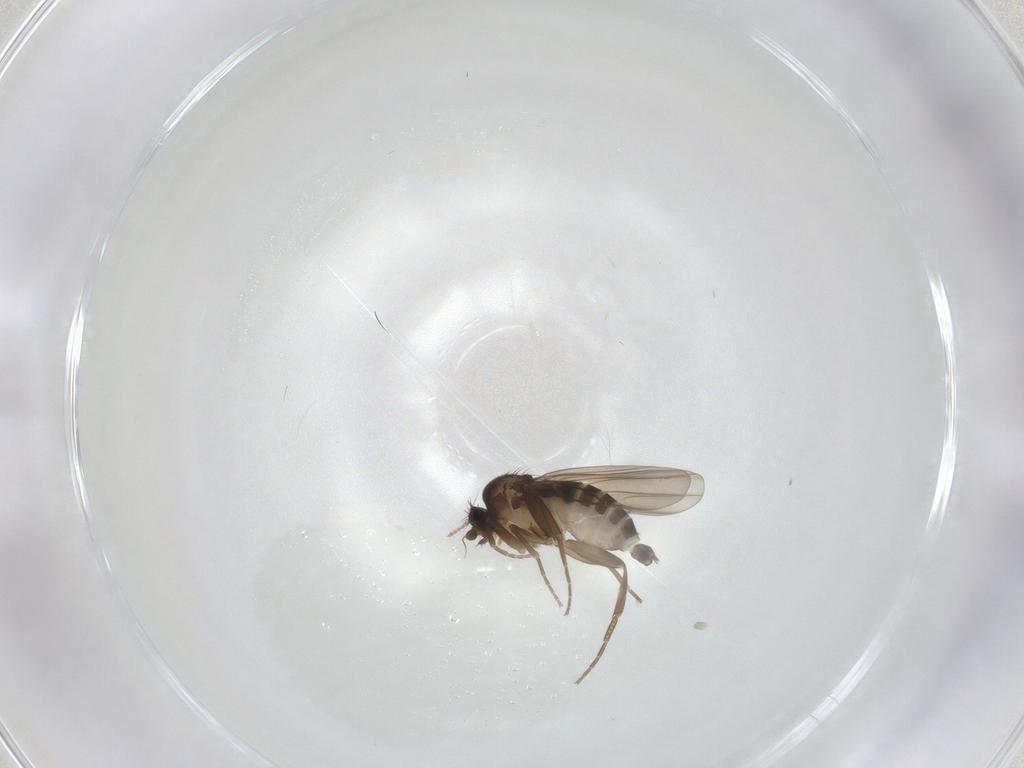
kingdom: Animalia
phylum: Arthropoda
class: Insecta
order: Diptera
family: Phoridae
